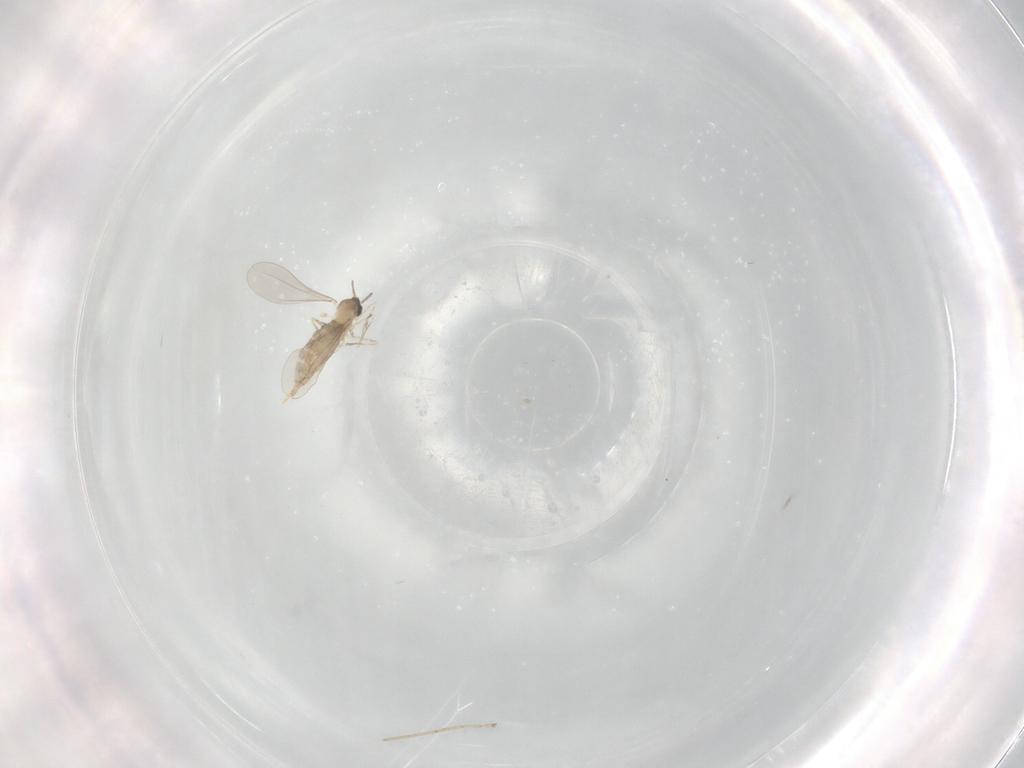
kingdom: Animalia
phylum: Arthropoda
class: Insecta
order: Diptera
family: Cecidomyiidae
